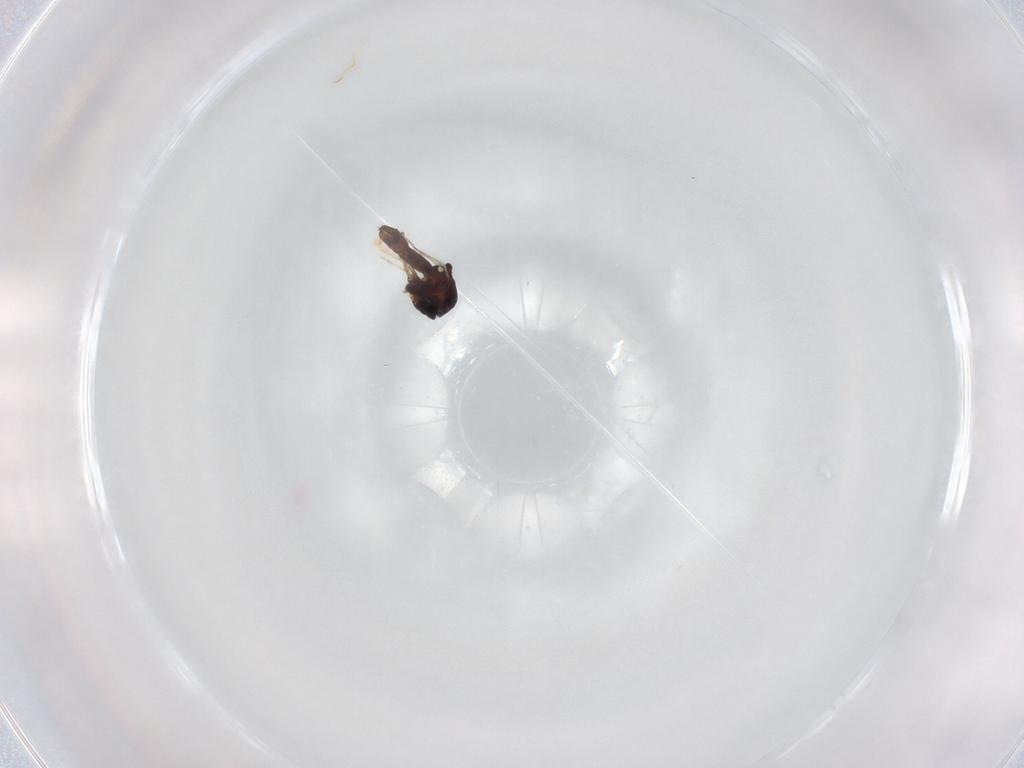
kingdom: Animalia
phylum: Arthropoda
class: Insecta
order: Diptera
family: Ceratopogonidae
